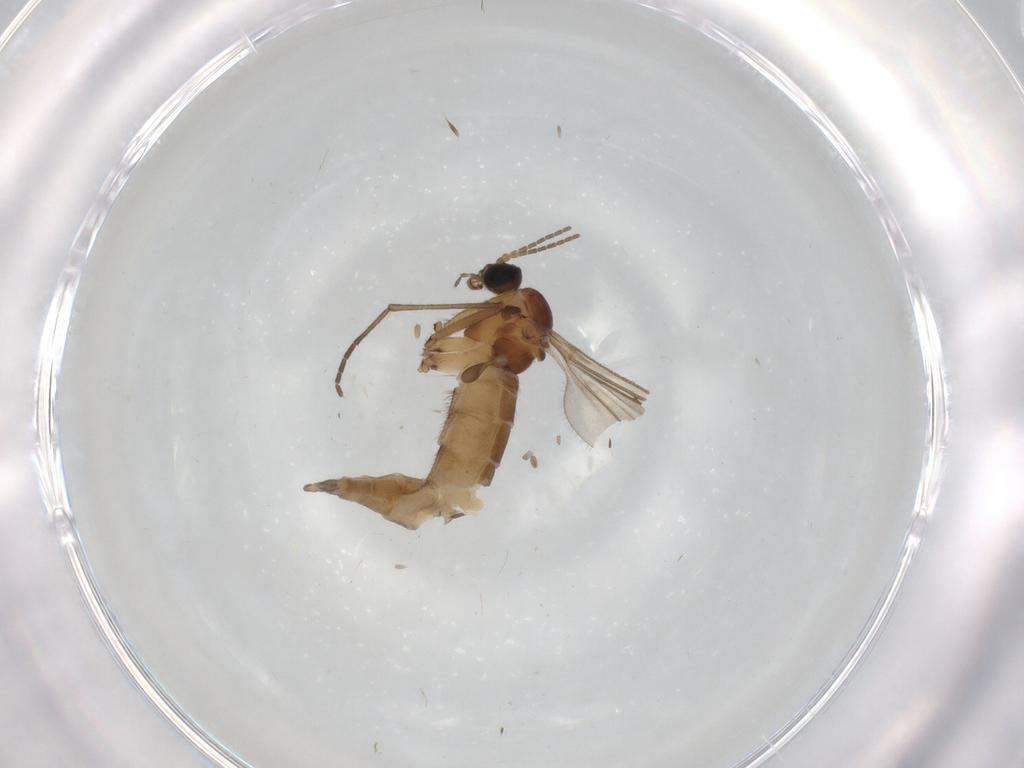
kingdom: Animalia
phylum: Arthropoda
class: Insecta
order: Diptera
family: Sciaridae
